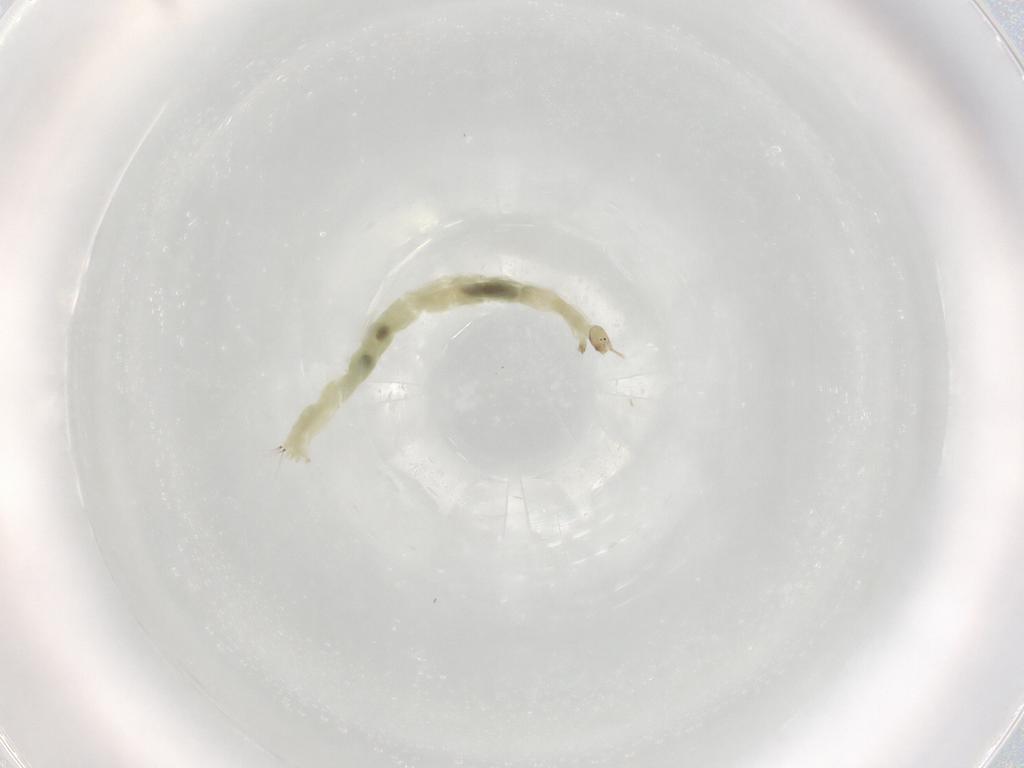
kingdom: Animalia
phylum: Arthropoda
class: Insecta
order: Diptera
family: Chironomidae
